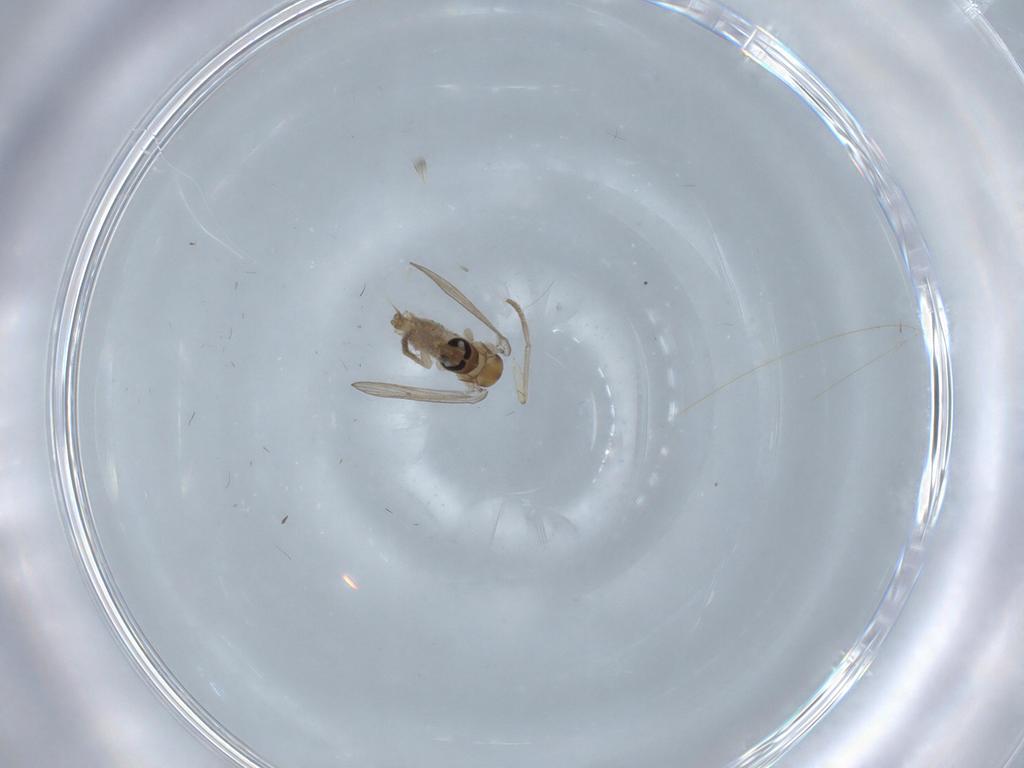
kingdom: Animalia
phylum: Arthropoda
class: Insecta
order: Diptera
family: Psychodidae
